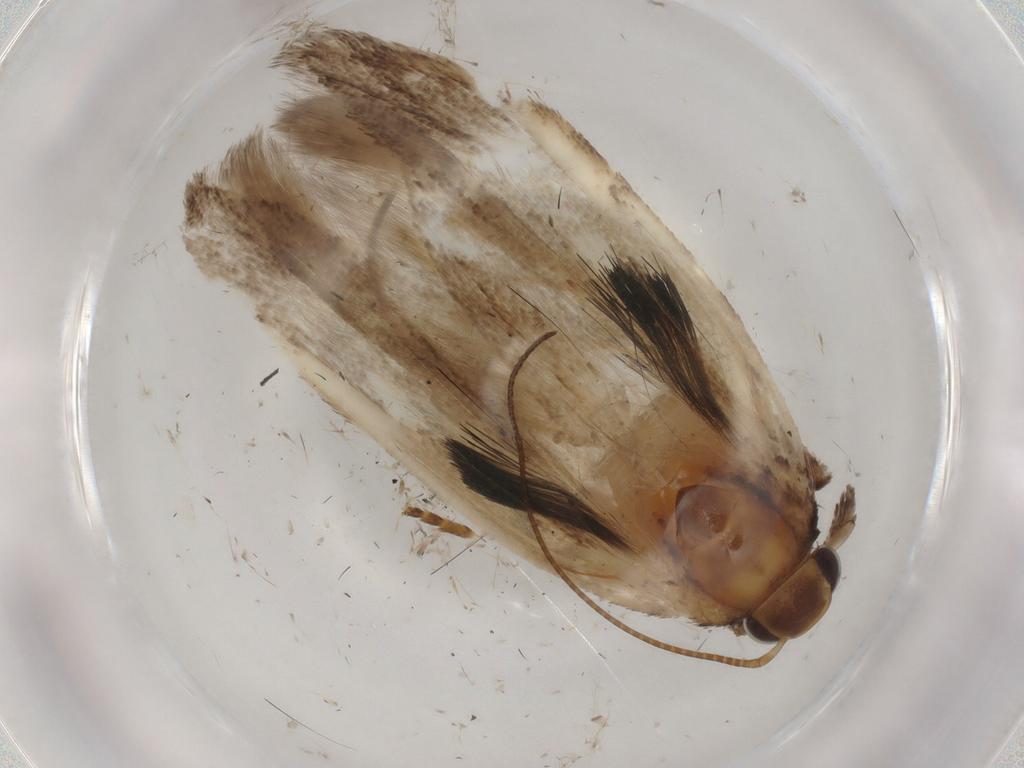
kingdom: Animalia
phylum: Arthropoda
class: Insecta
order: Lepidoptera
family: Gelechiidae
